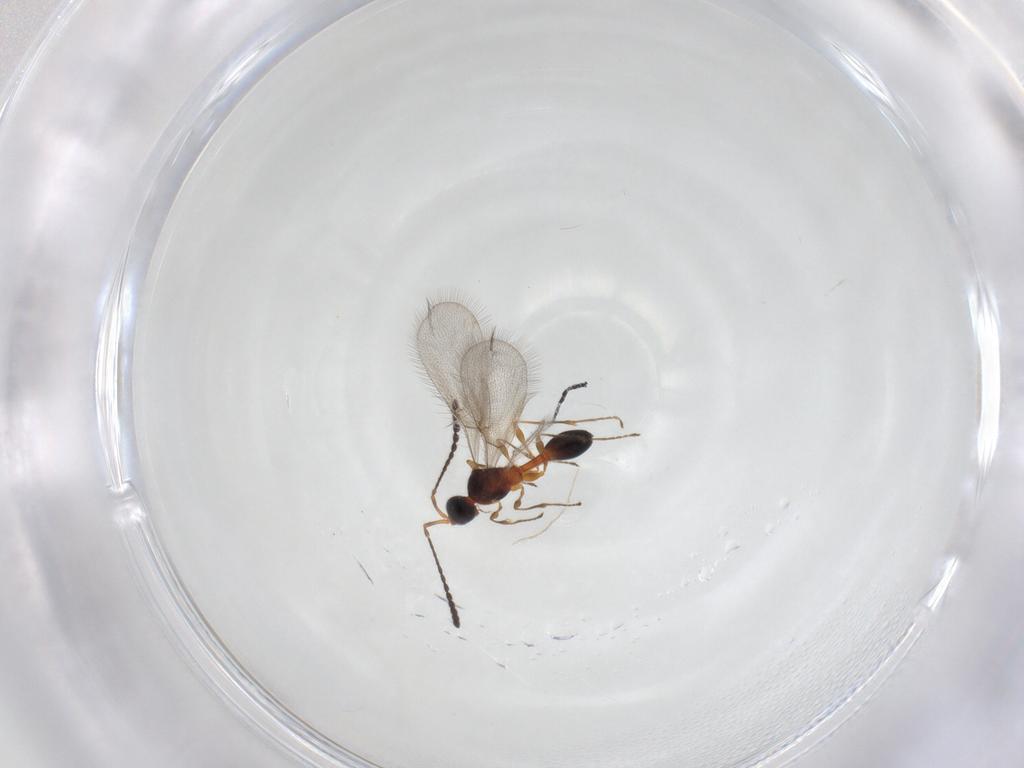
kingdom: Animalia
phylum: Arthropoda
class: Insecta
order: Hymenoptera
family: Diapriidae
